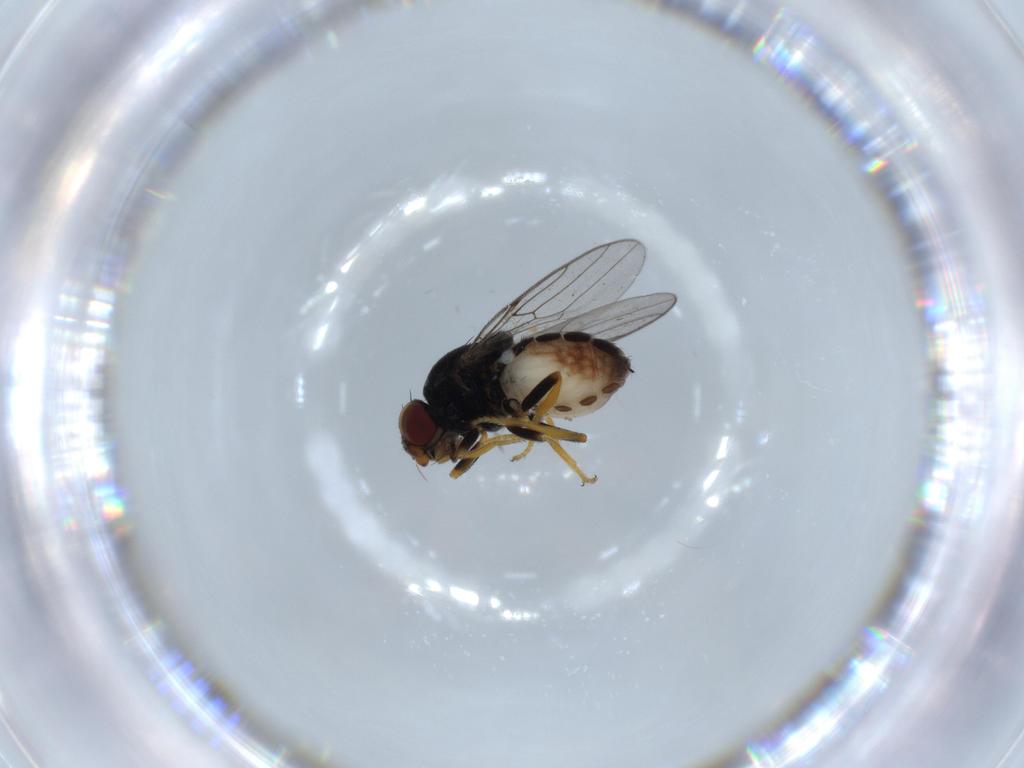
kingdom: Animalia
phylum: Arthropoda
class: Insecta
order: Diptera
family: Chloropidae
